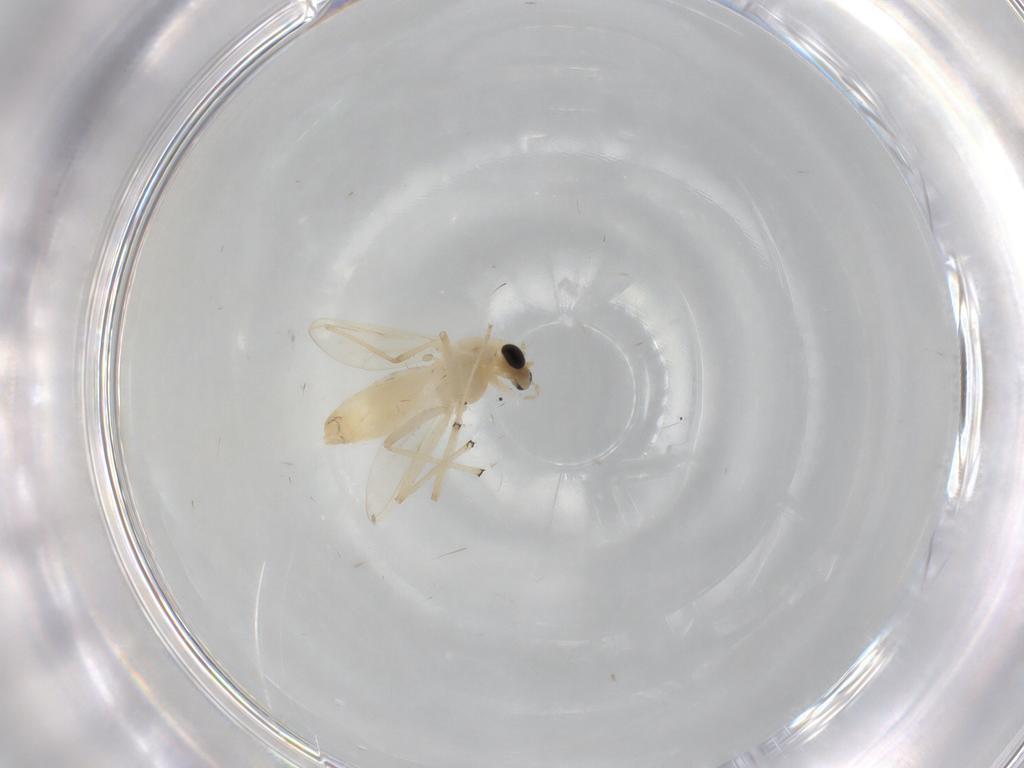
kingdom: Animalia
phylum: Arthropoda
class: Insecta
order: Diptera
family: Chironomidae
